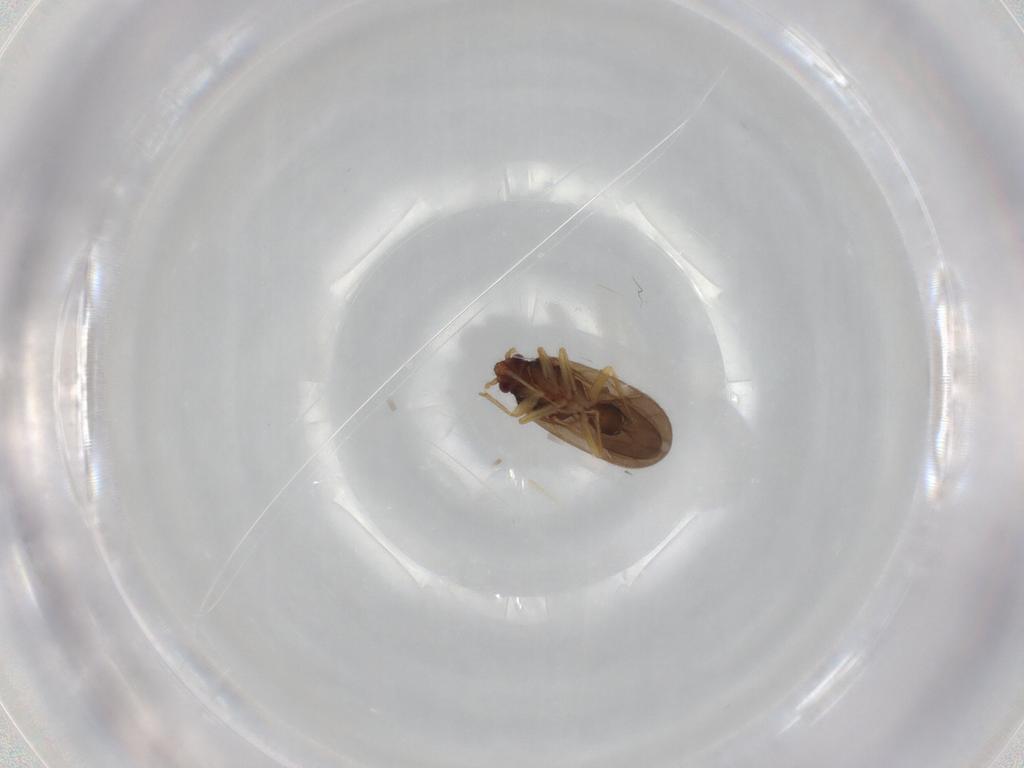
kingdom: Animalia
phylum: Arthropoda
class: Insecta
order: Hemiptera
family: Ceratocombidae
